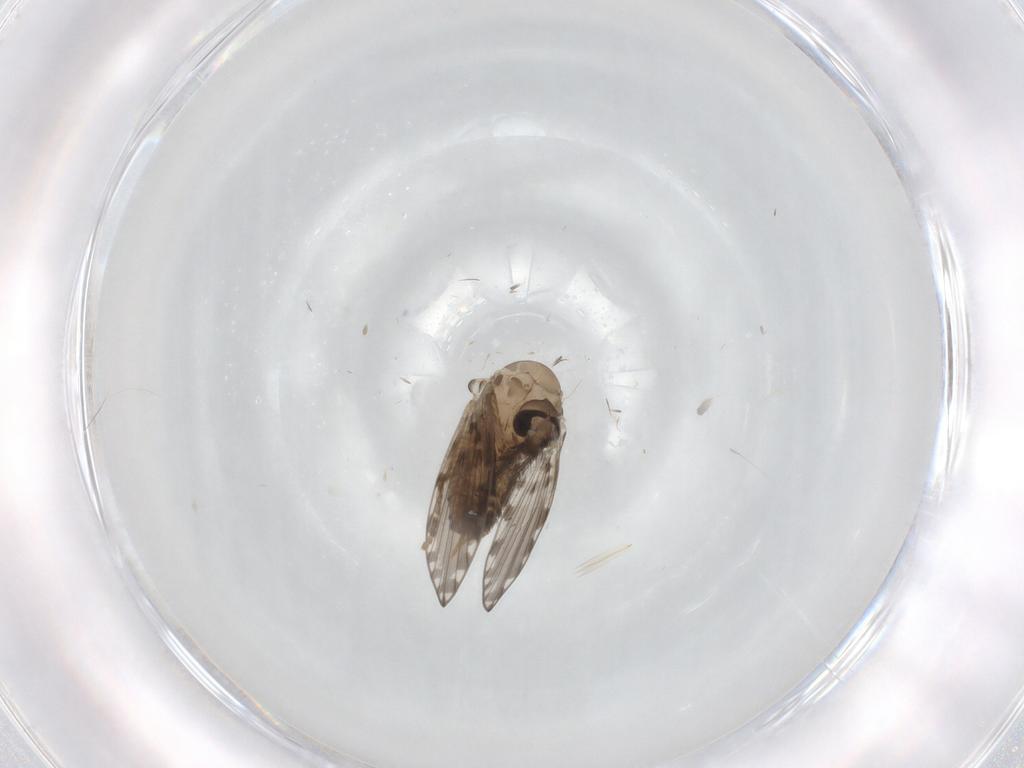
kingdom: Animalia
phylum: Arthropoda
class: Insecta
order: Diptera
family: Psychodidae
